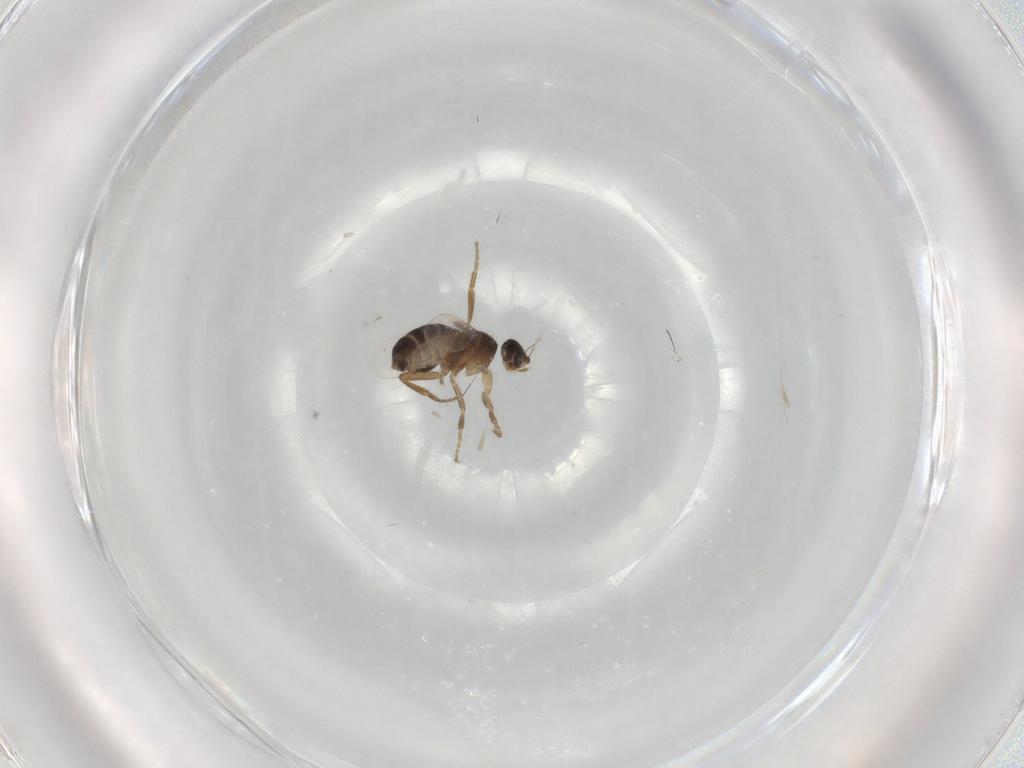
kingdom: Animalia
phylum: Arthropoda
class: Insecta
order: Diptera
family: Phoridae
